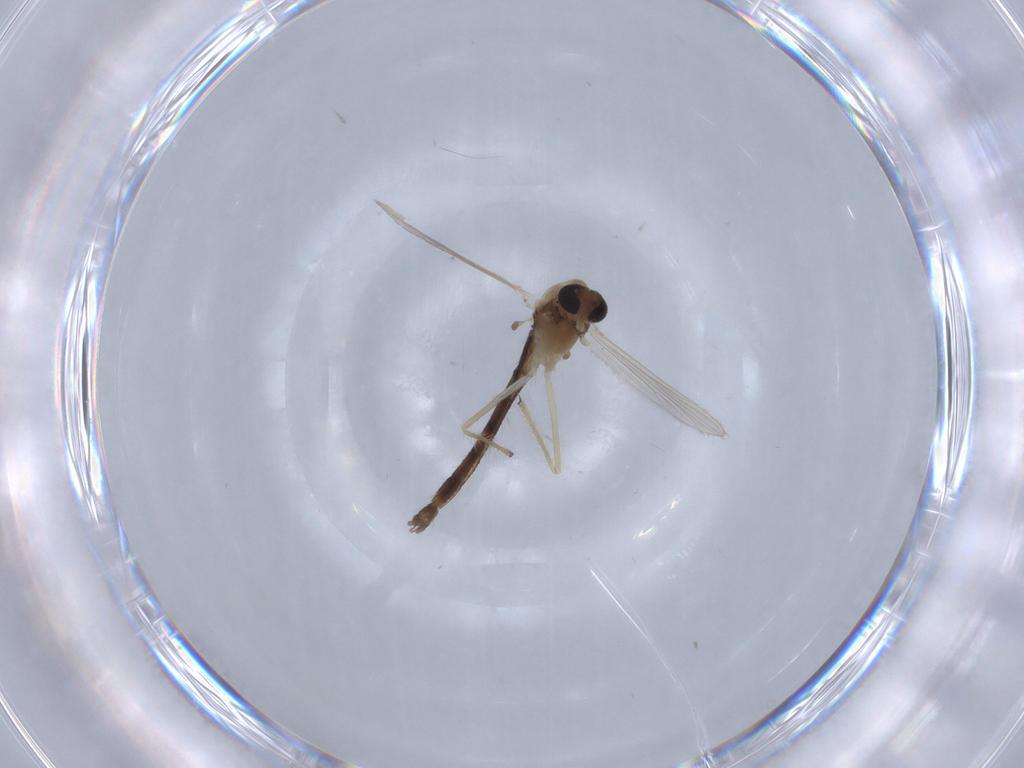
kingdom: Animalia
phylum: Arthropoda
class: Insecta
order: Diptera
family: Chironomidae
